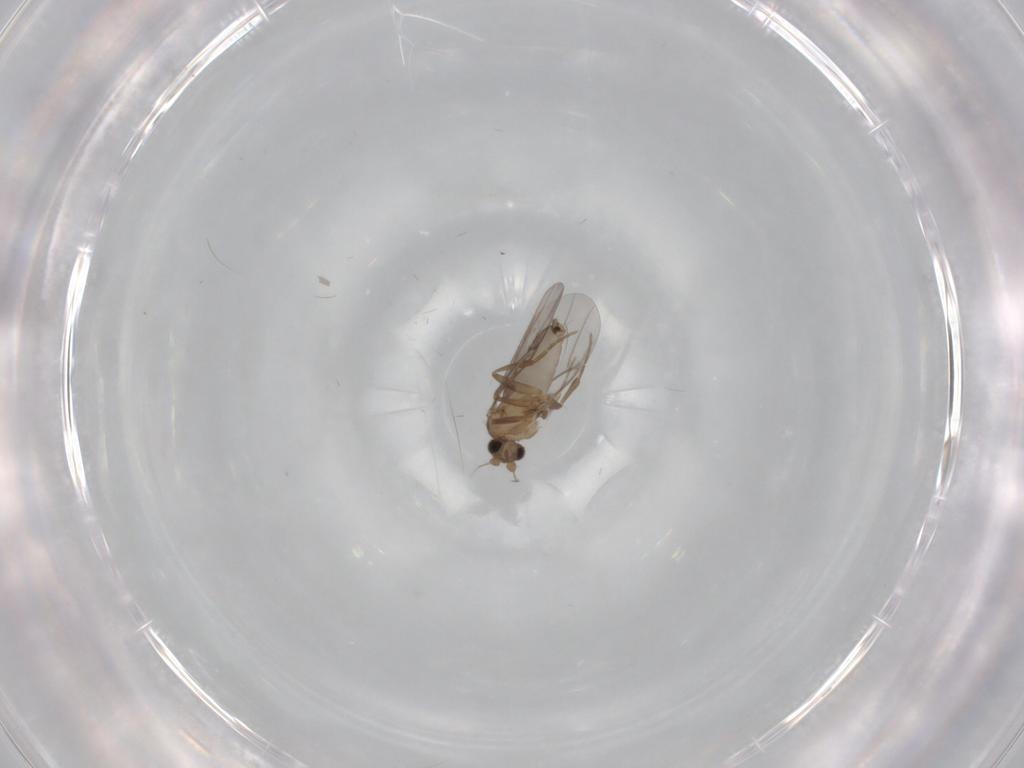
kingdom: Animalia
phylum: Arthropoda
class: Insecta
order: Diptera
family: Sciaridae
